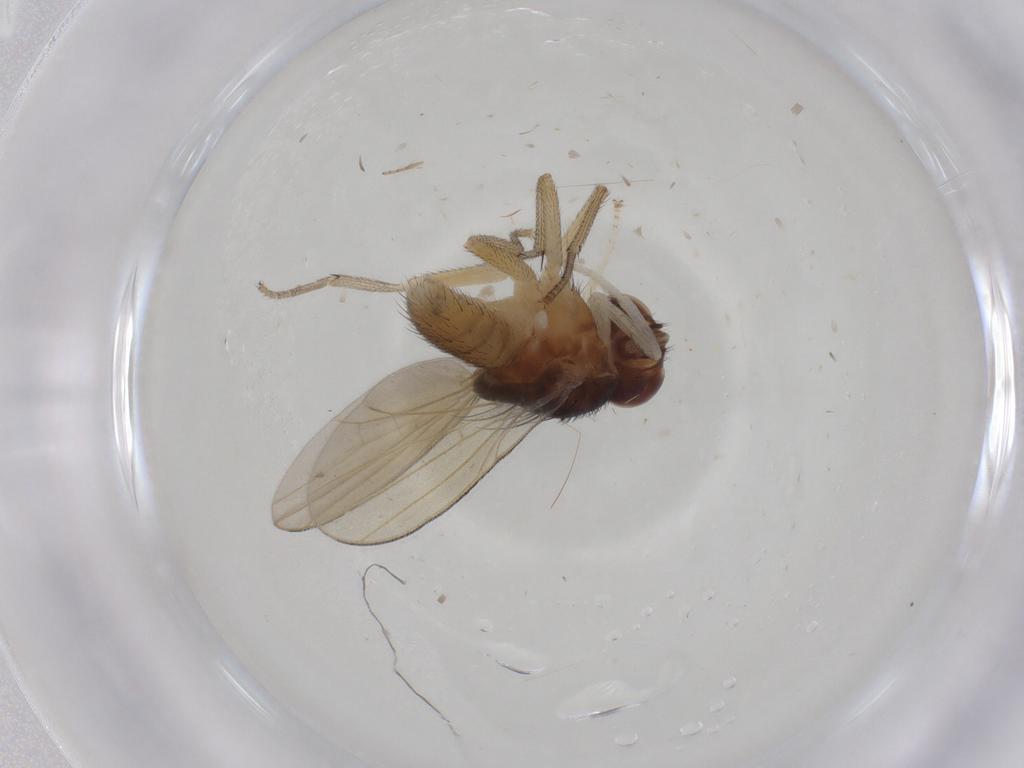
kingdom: Animalia
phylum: Arthropoda
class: Insecta
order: Diptera
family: Lauxaniidae
